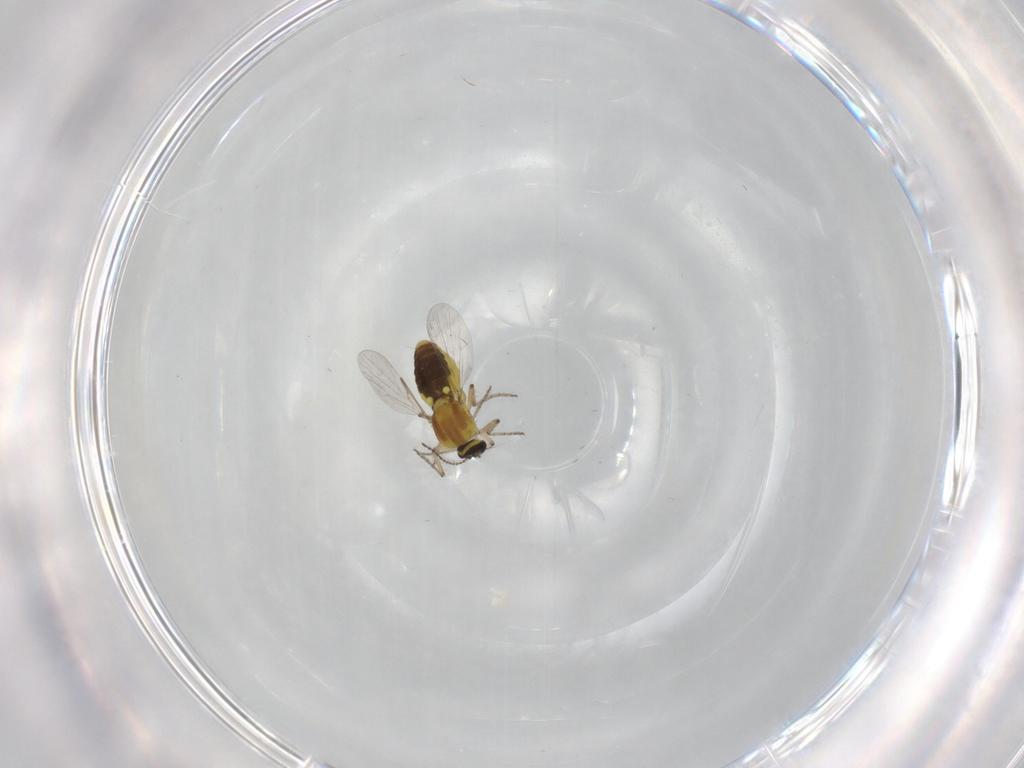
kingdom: Animalia
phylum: Arthropoda
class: Insecta
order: Diptera
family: Ceratopogonidae
